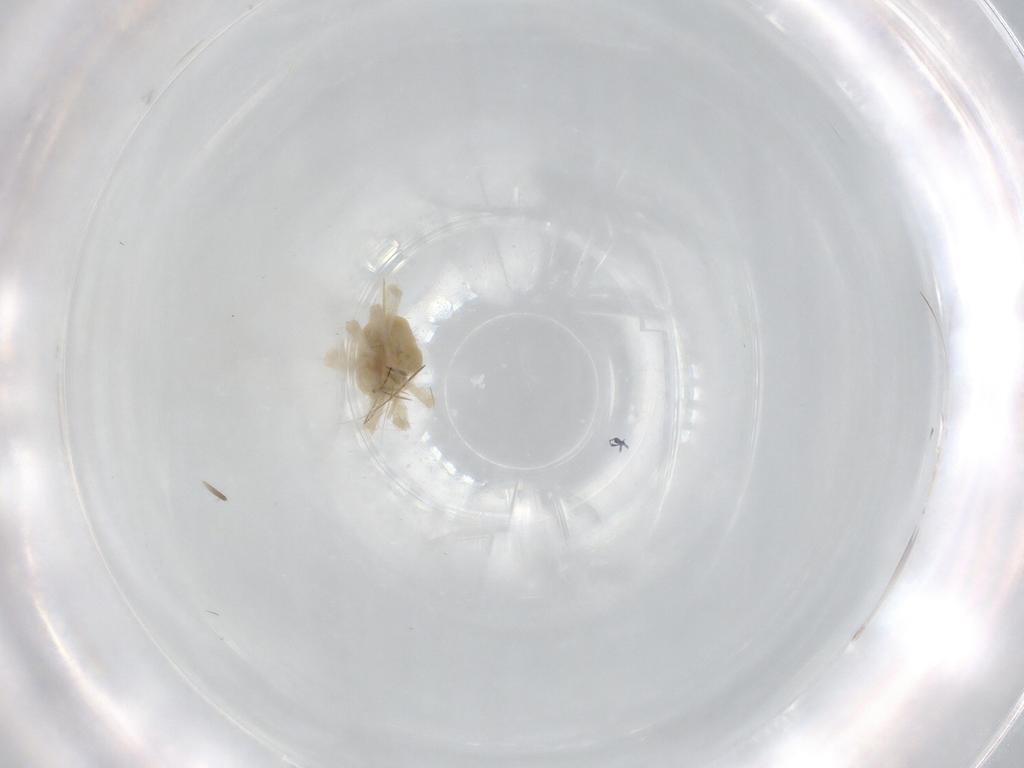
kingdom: Animalia
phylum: Arthropoda
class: Arachnida
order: Trombidiformes
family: Anystidae
